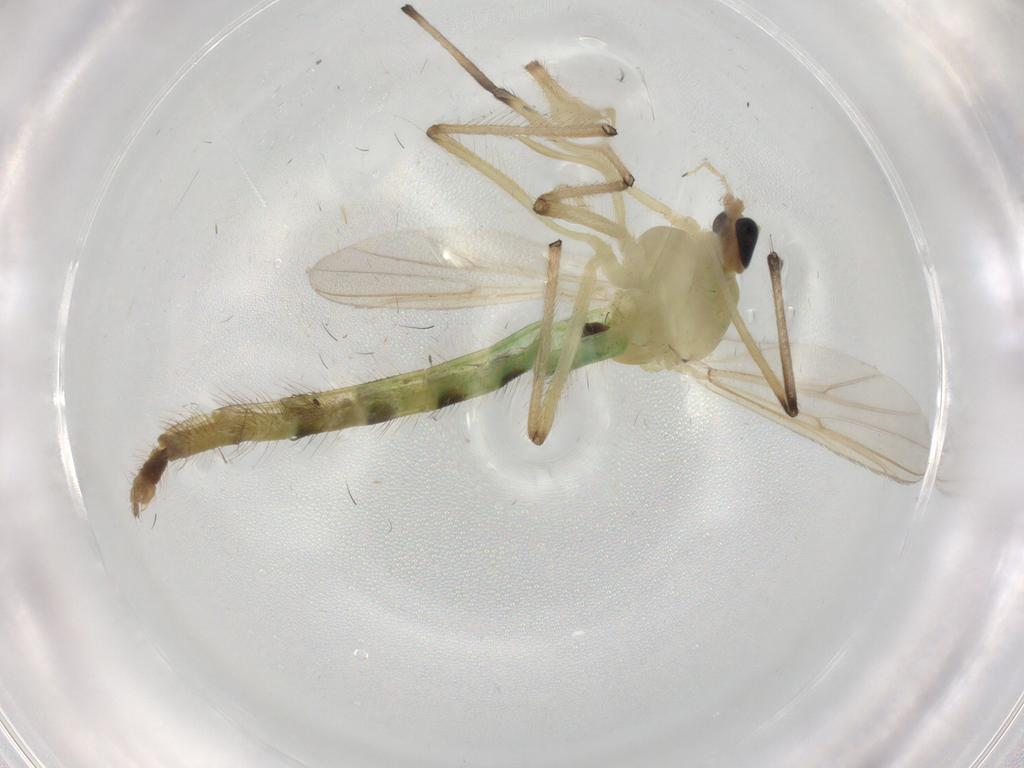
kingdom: Animalia
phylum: Arthropoda
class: Insecta
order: Diptera
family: Chironomidae
